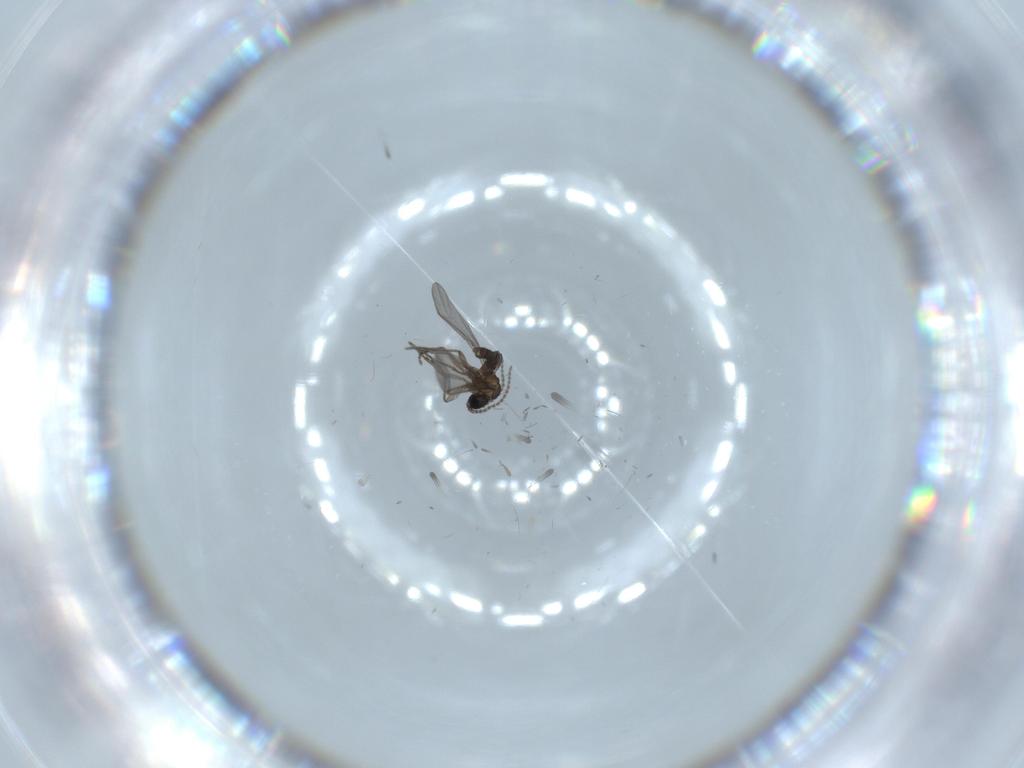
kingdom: Animalia
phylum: Arthropoda
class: Insecta
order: Diptera
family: Sciaridae
